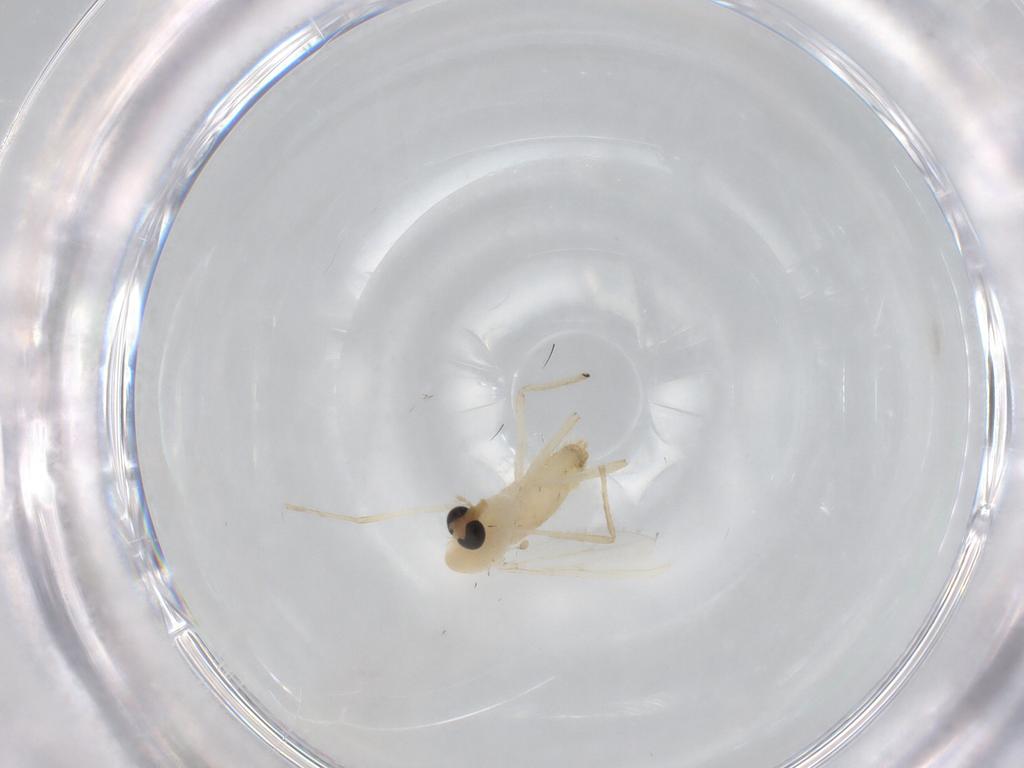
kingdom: Animalia
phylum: Arthropoda
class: Insecta
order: Diptera
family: Chironomidae
